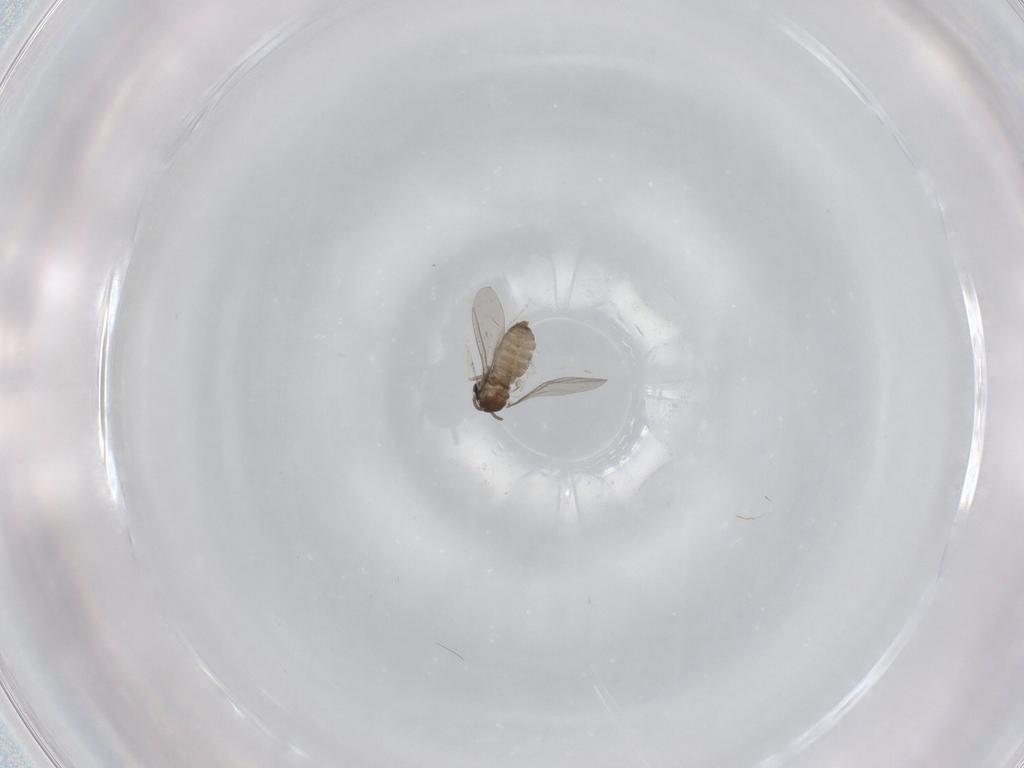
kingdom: Animalia
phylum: Arthropoda
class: Insecta
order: Diptera
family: Cecidomyiidae
